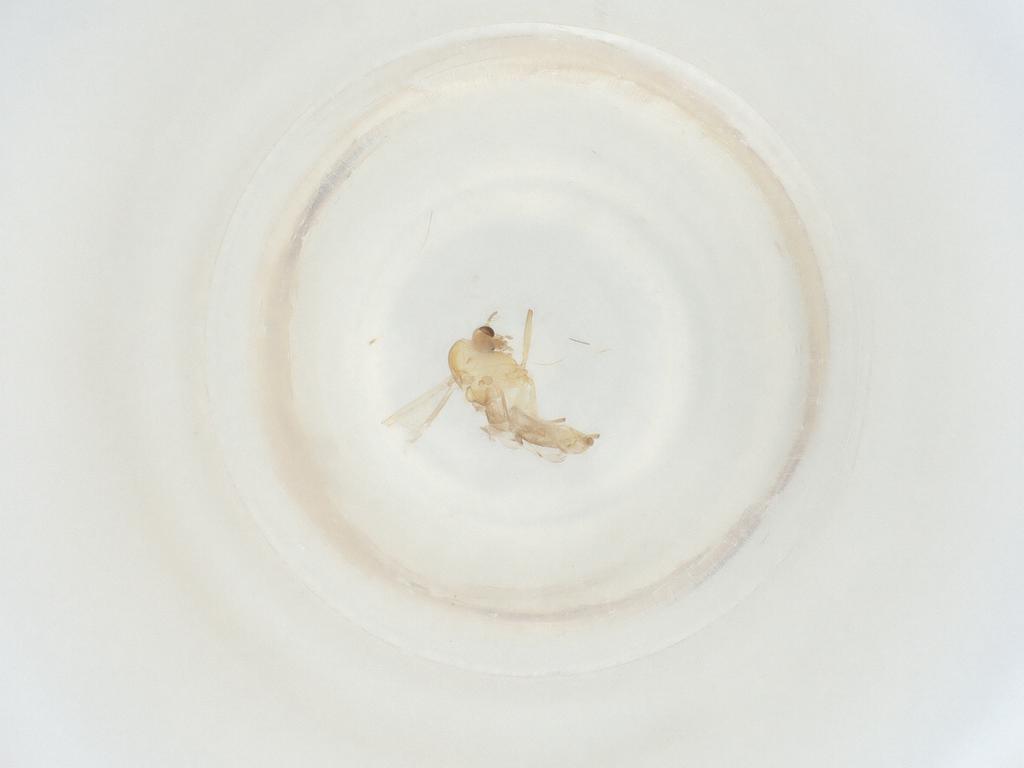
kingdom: Animalia
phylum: Arthropoda
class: Insecta
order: Diptera
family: Chironomidae
